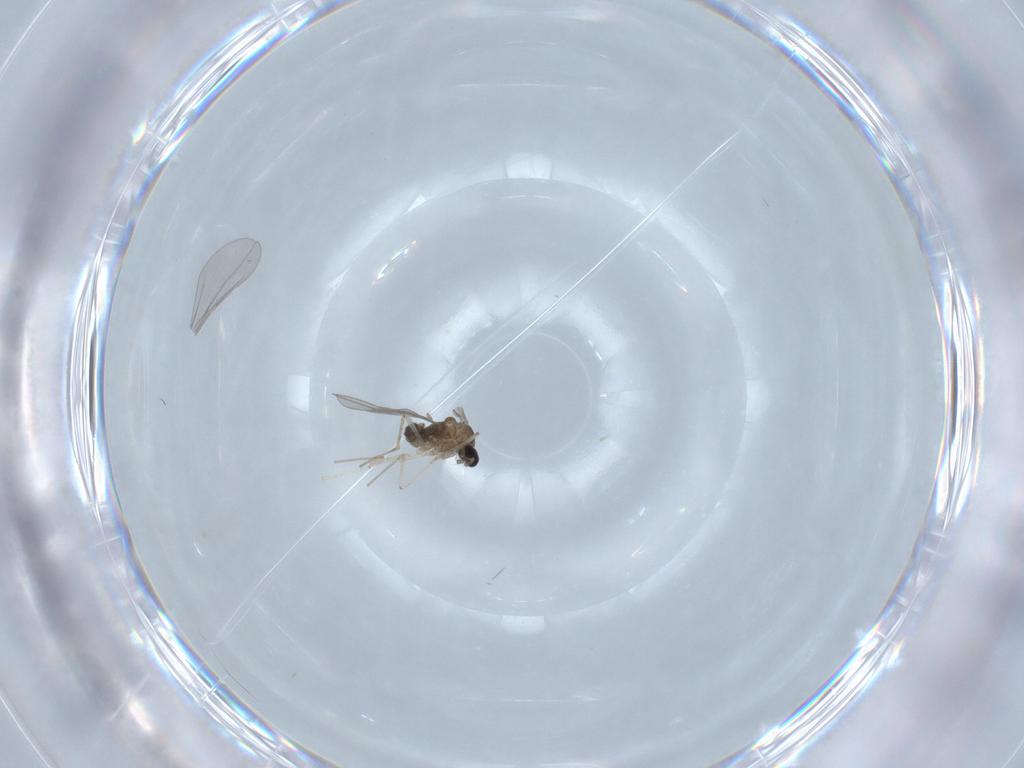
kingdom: Animalia
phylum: Arthropoda
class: Insecta
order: Diptera
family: Cecidomyiidae
